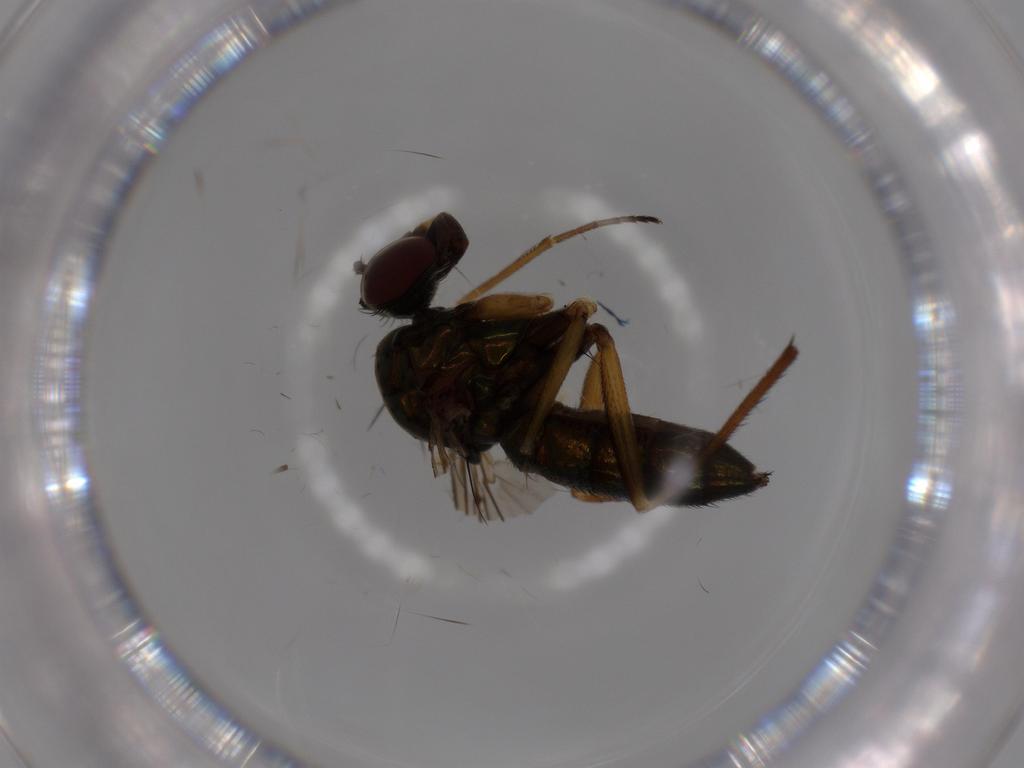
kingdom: Animalia
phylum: Arthropoda
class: Insecta
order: Diptera
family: Dolichopodidae
